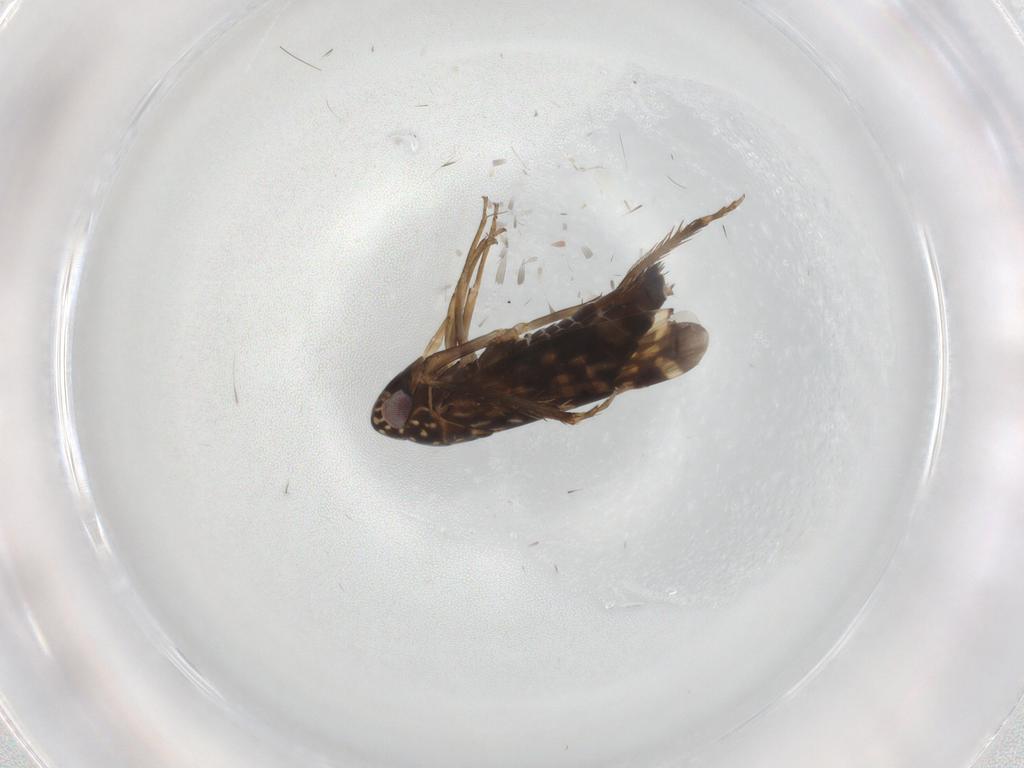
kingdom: Animalia
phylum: Arthropoda
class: Insecta
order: Hemiptera
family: Cicadellidae
